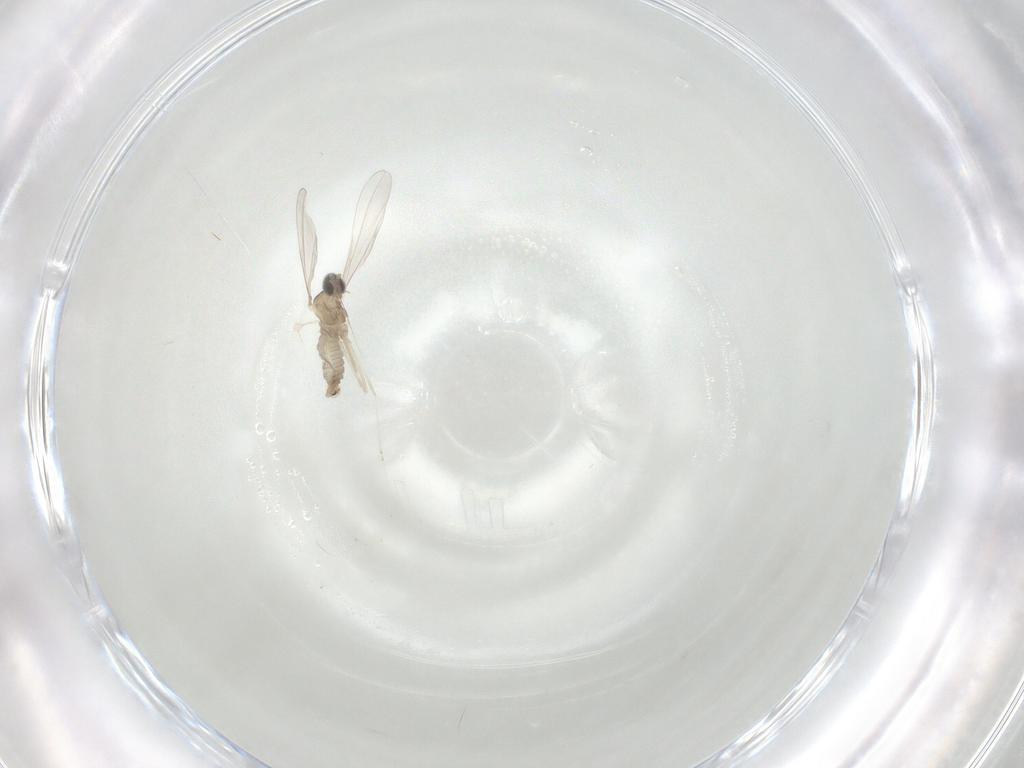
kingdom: Animalia
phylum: Arthropoda
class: Insecta
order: Diptera
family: Cecidomyiidae
